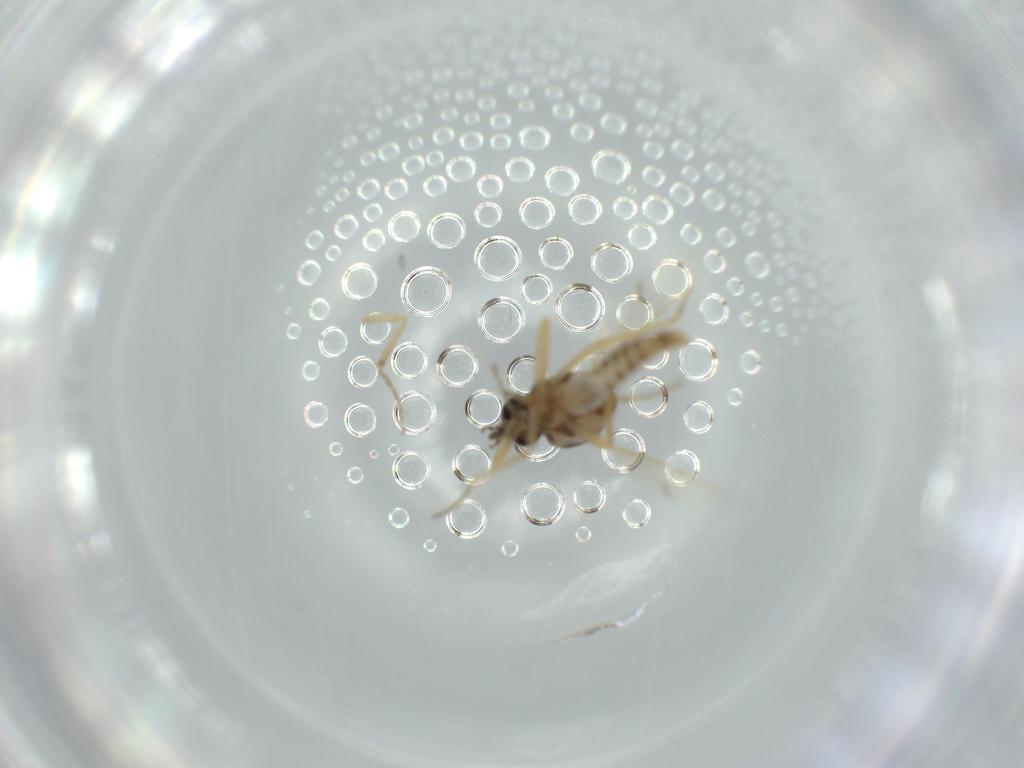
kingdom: Animalia
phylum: Arthropoda
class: Insecta
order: Diptera
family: Ceratopogonidae
